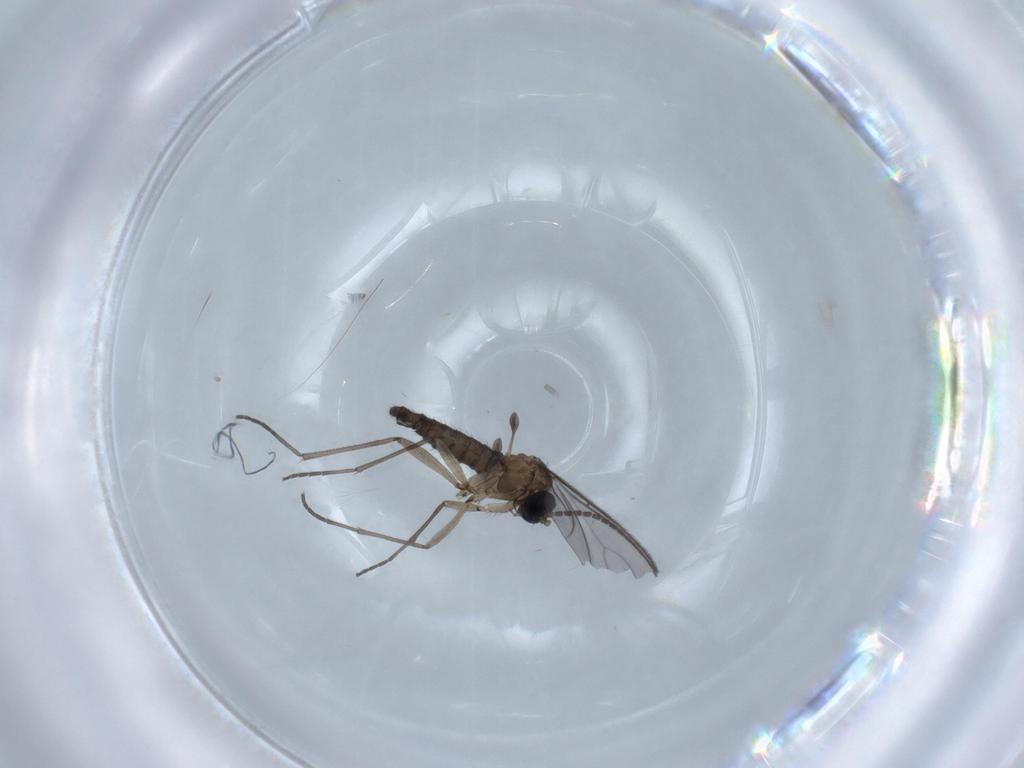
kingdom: Animalia
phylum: Arthropoda
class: Insecta
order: Diptera
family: Sciaridae
